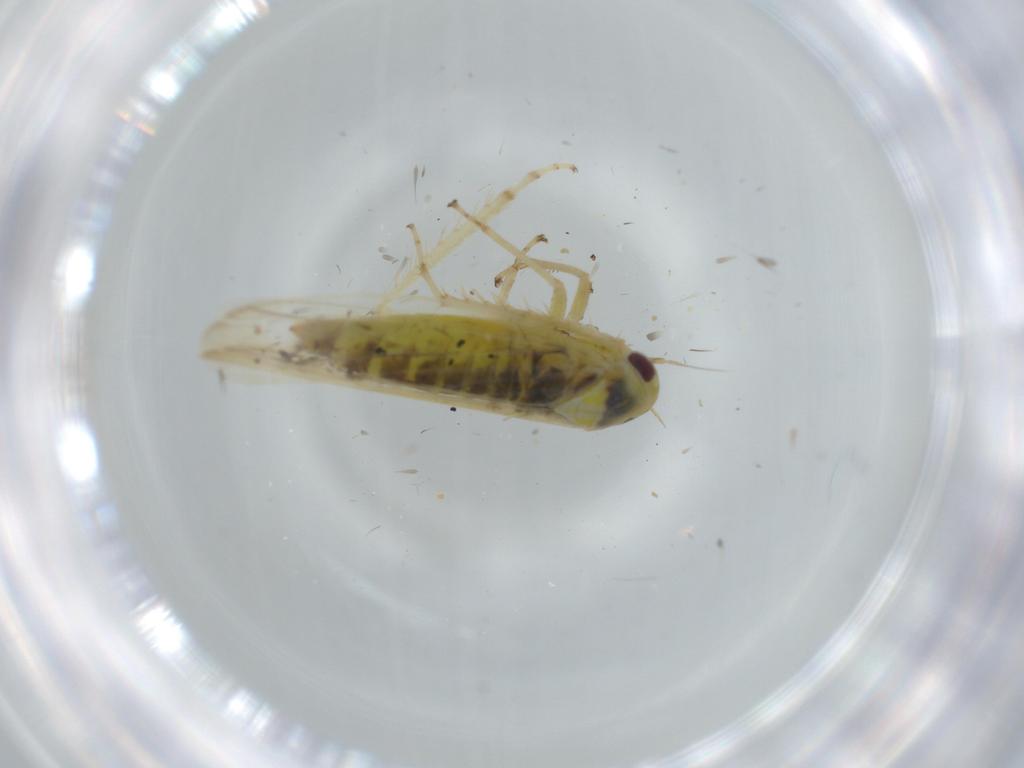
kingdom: Animalia
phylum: Arthropoda
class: Insecta
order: Hemiptera
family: Cicadellidae
